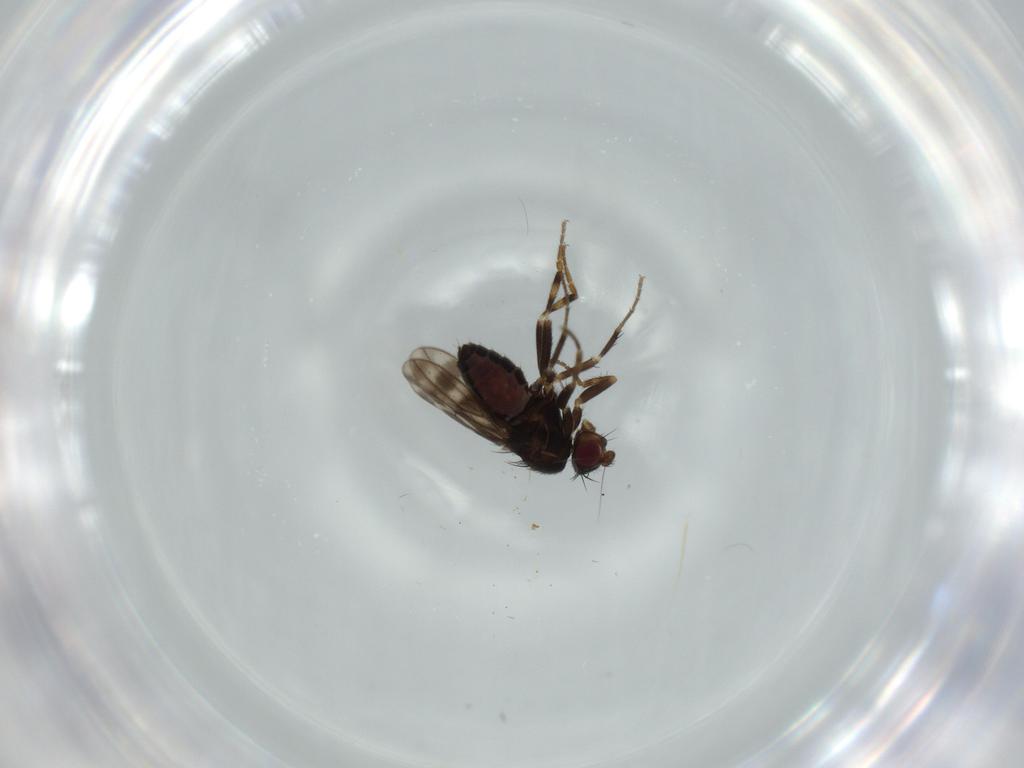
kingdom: Animalia
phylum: Arthropoda
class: Insecta
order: Diptera
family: Sphaeroceridae
